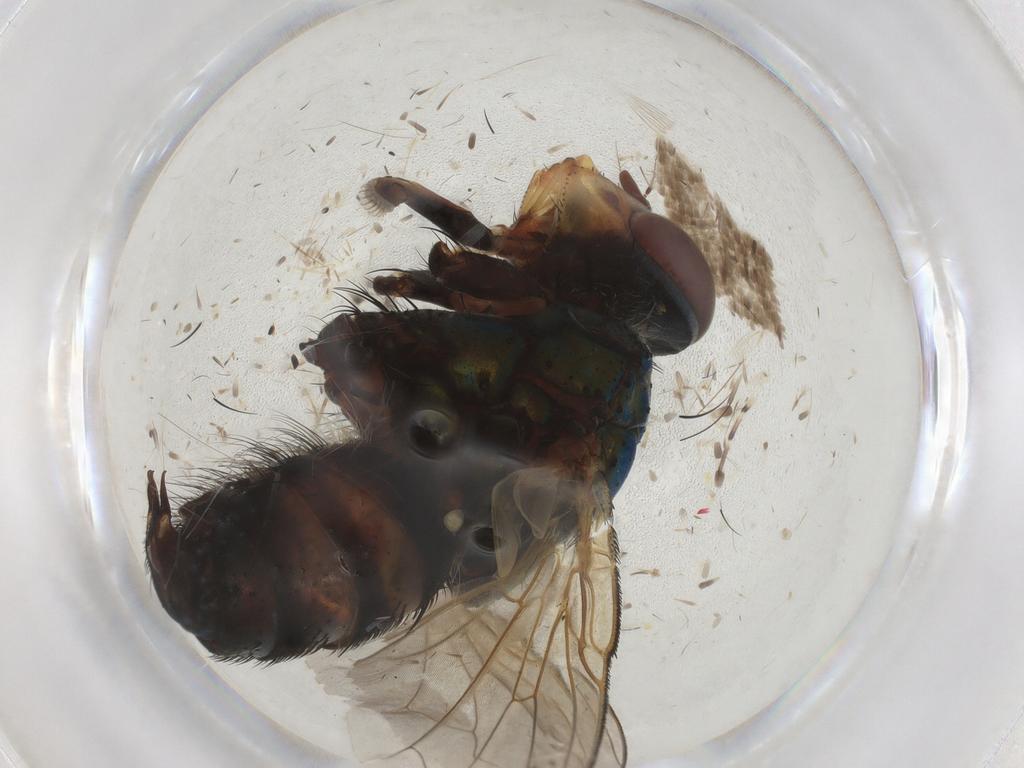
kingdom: Animalia
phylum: Arthropoda
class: Insecta
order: Diptera
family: Calliphoridae
